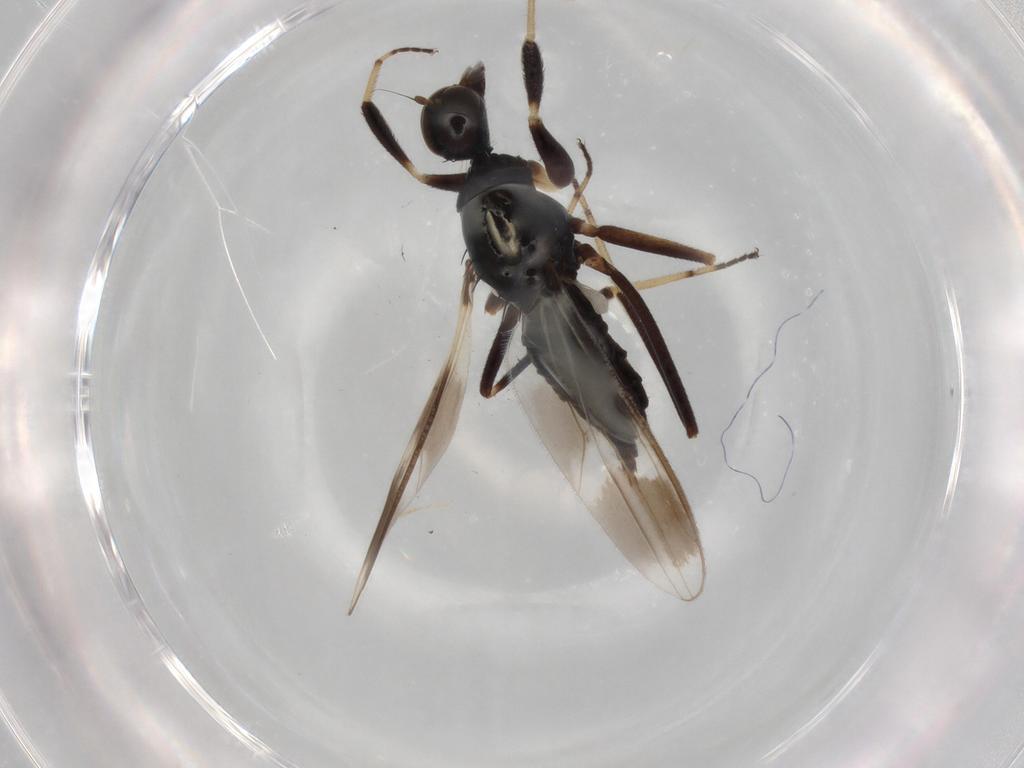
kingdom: Animalia
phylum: Arthropoda
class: Insecta
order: Diptera
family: Hybotidae
